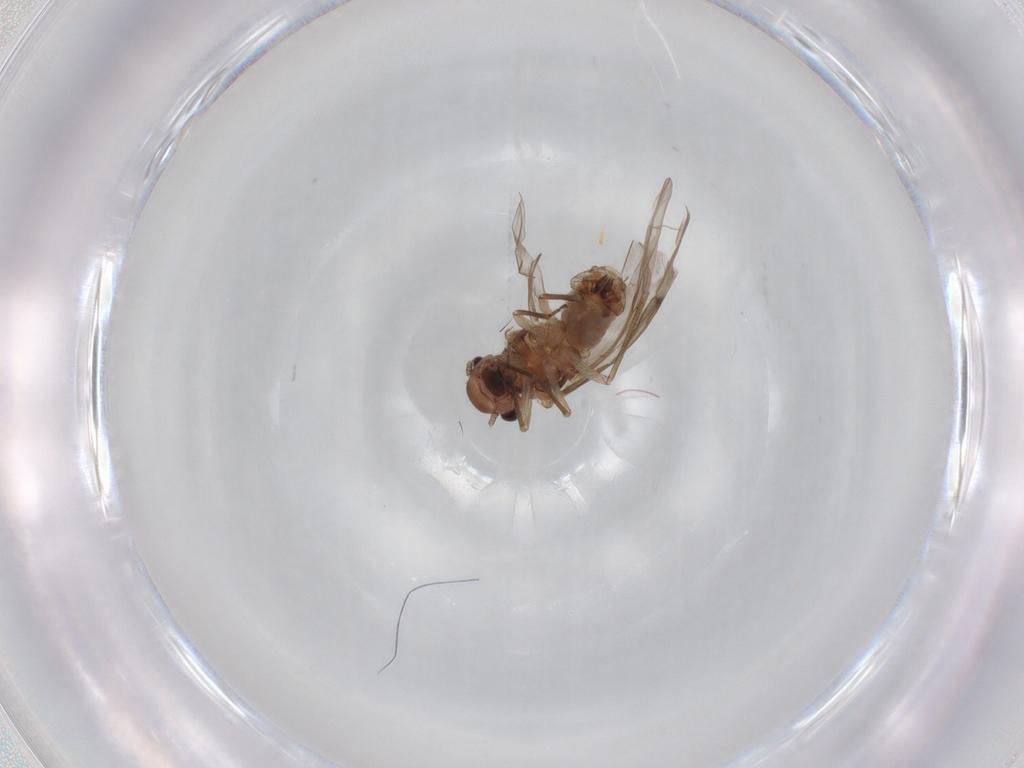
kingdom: Animalia
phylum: Arthropoda
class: Insecta
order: Psocodea
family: Peripsocidae
